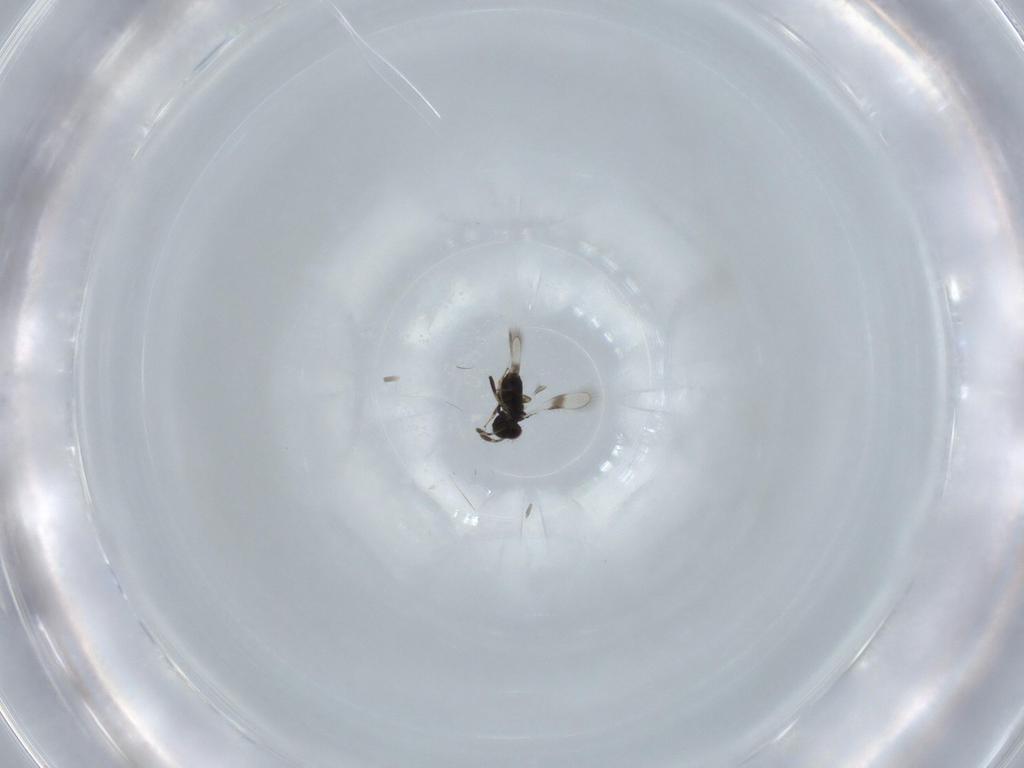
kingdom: Animalia
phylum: Arthropoda
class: Insecta
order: Hymenoptera
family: Azotidae
